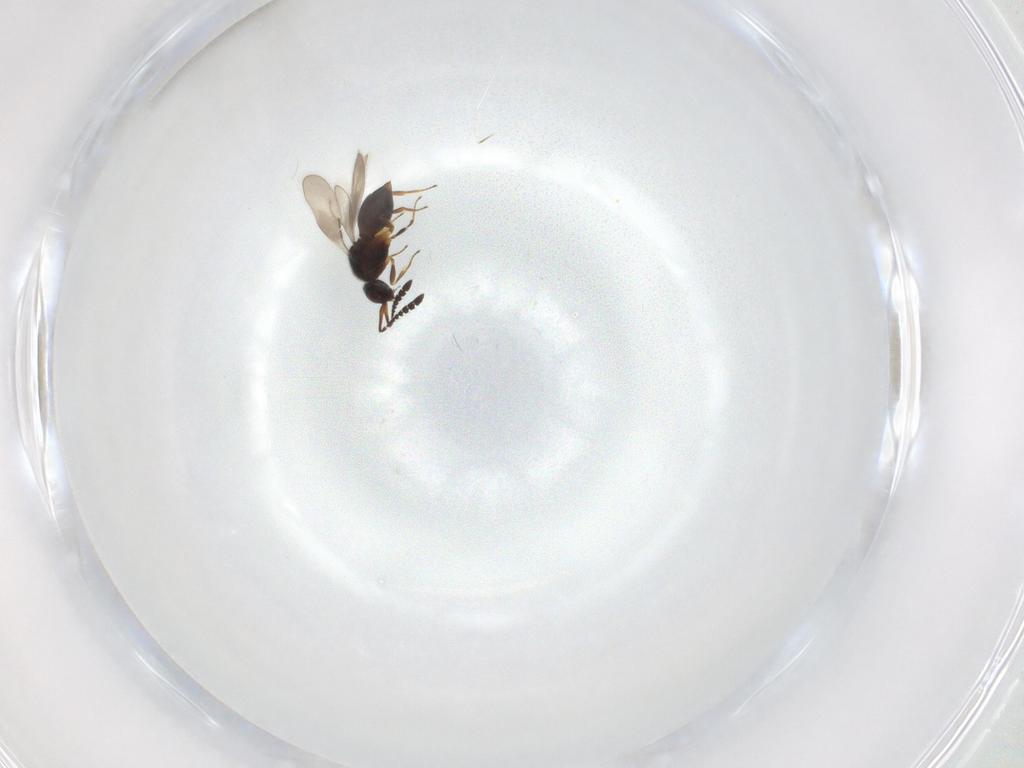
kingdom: Animalia
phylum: Arthropoda
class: Insecta
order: Hymenoptera
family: Ceraphronidae
